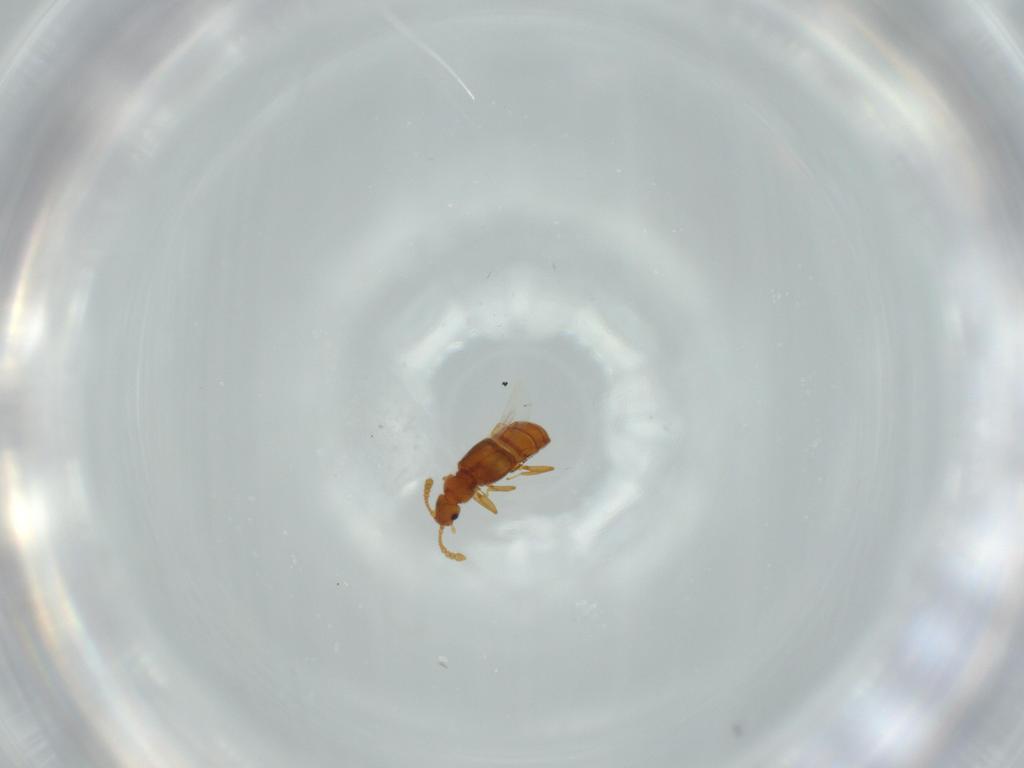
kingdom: Animalia
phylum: Arthropoda
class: Insecta
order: Coleoptera
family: Staphylinidae
